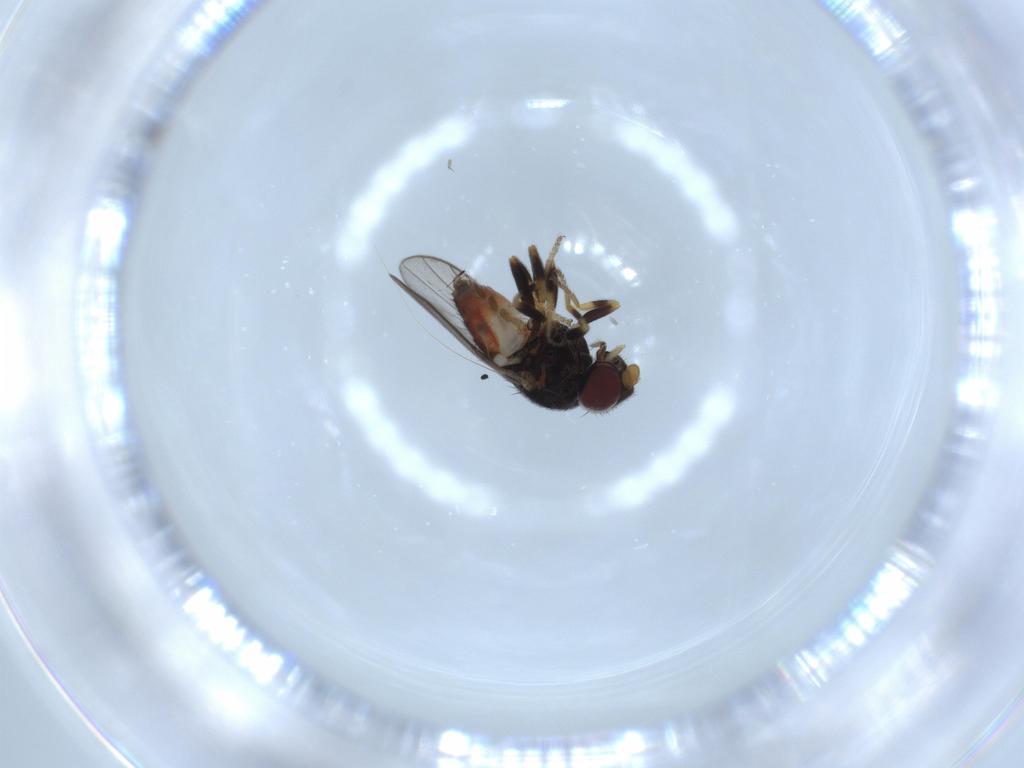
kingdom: Animalia
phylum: Arthropoda
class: Insecta
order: Diptera
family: Chloropidae
